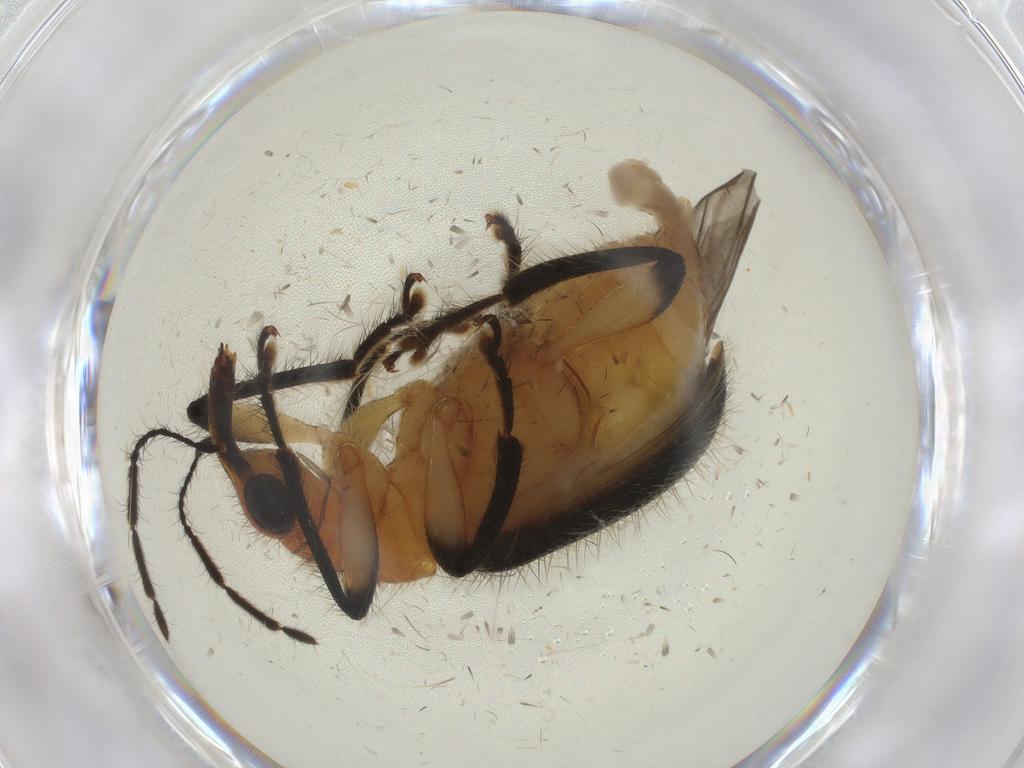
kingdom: Animalia
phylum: Arthropoda
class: Insecta
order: Coleoptera
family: Attelabidae
